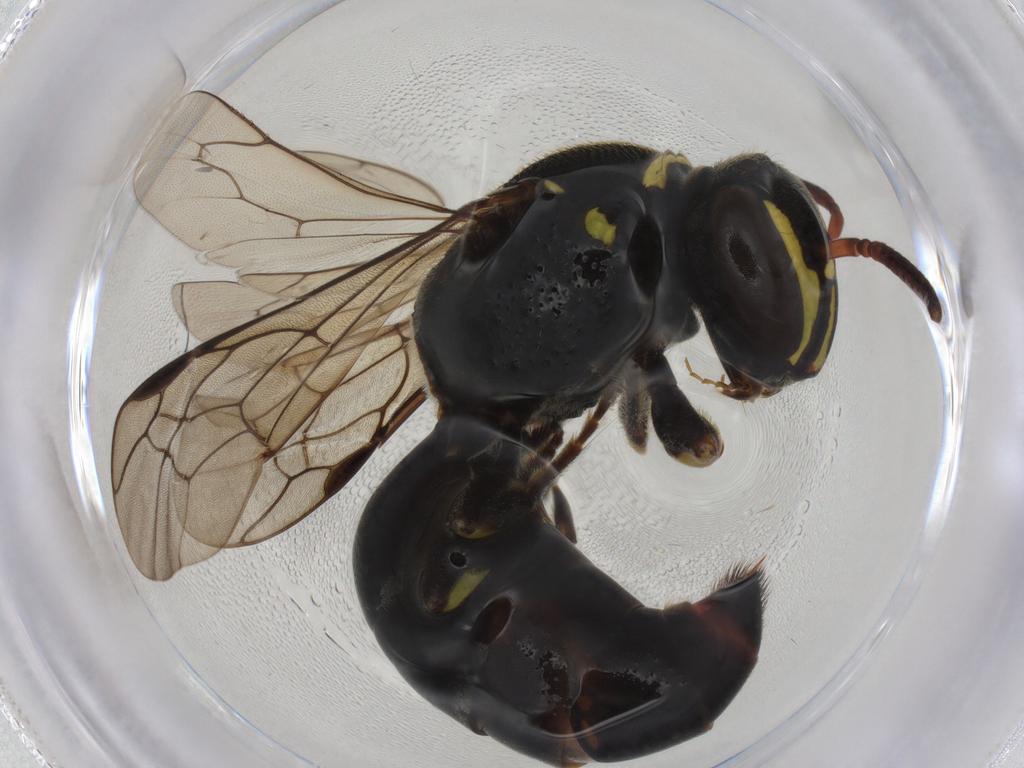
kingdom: Animalia
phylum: Arthropoda
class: Insecta
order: Hymenoptera
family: Colletidae
